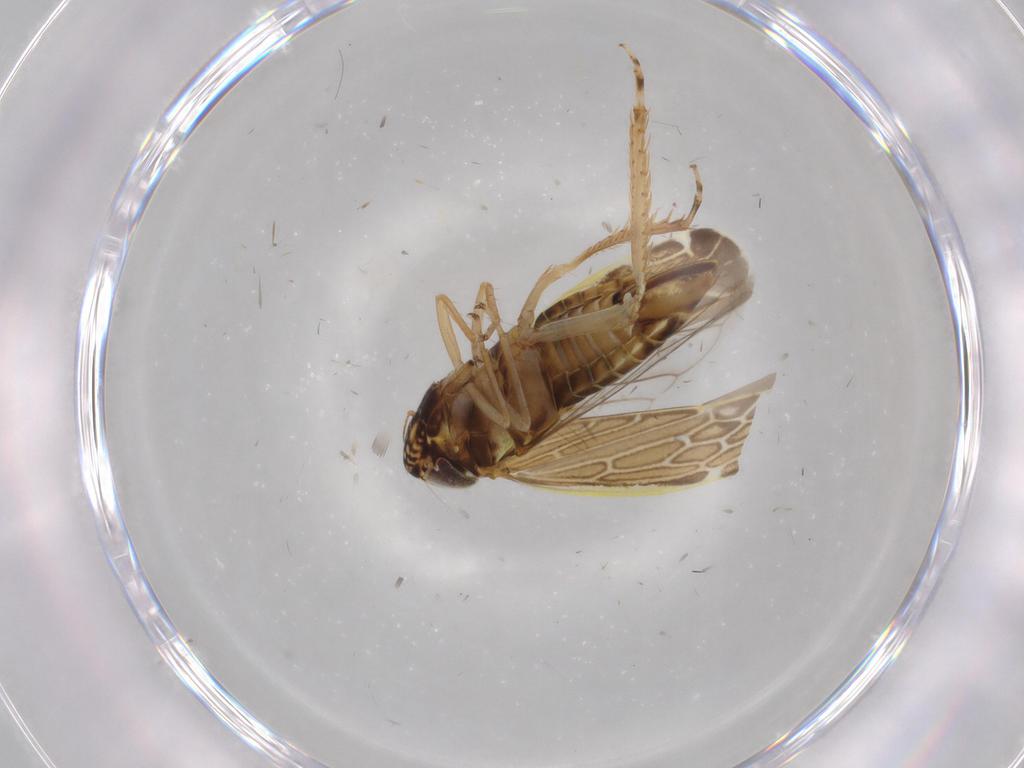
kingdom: Animalia
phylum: Arthropoda
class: Insecta
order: Hemiptera
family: Cicadellidae
